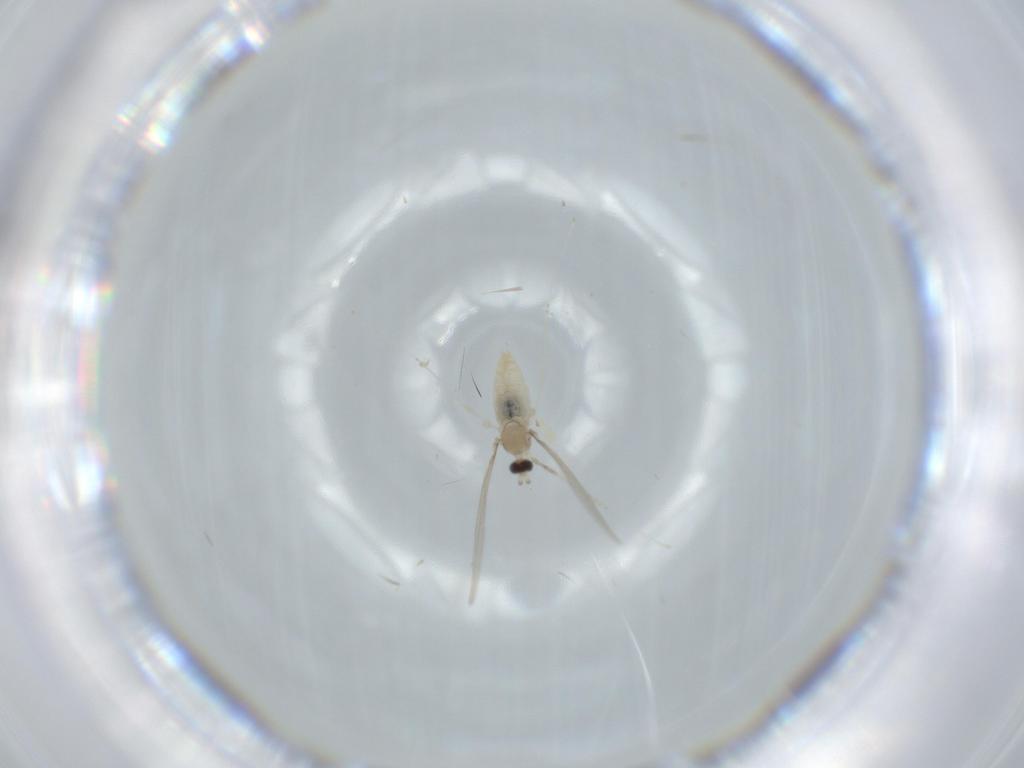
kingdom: Animalia
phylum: Arthropoda
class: Insecta
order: Diptera
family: Cecidomyiidae
